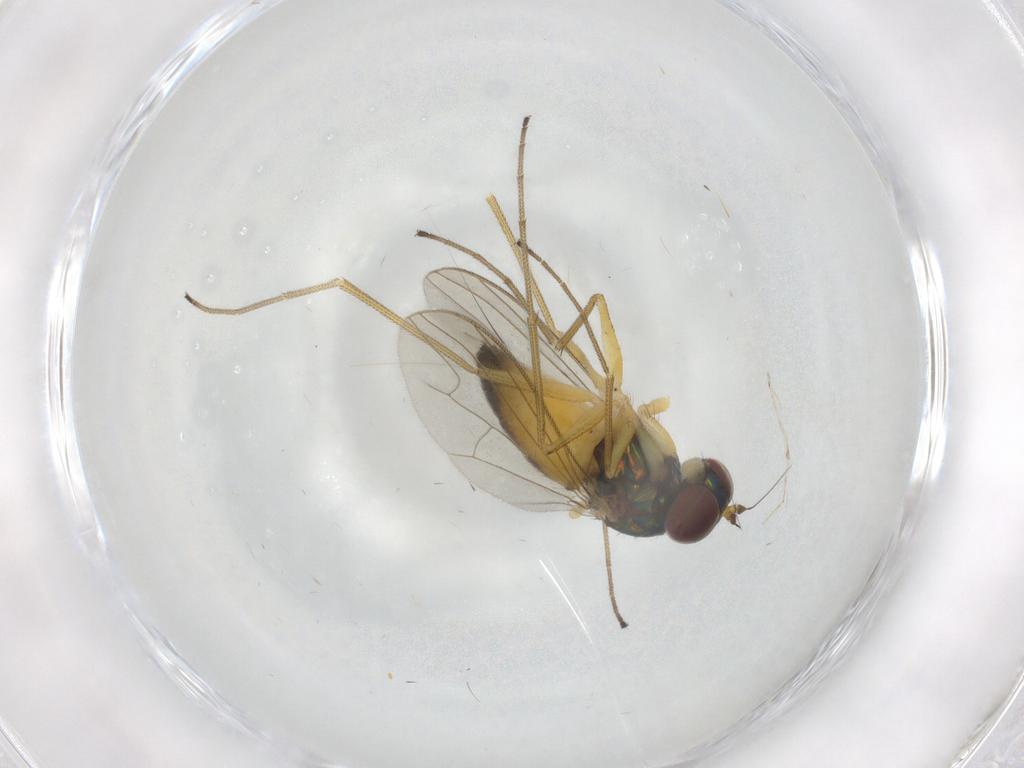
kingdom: Animalia
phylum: Arthropoda
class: Insecta
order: Diptera
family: Dolichopodidae
